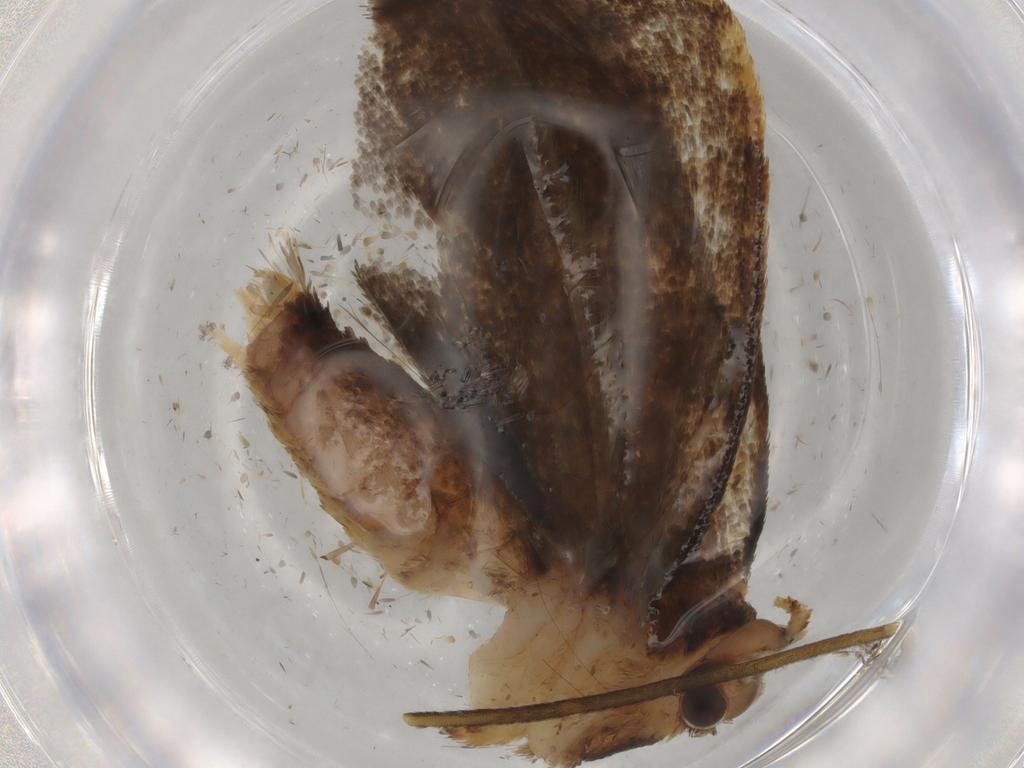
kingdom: Animalia
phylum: Arthropoda
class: Insecta
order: Lepidoptera
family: Tineidae
